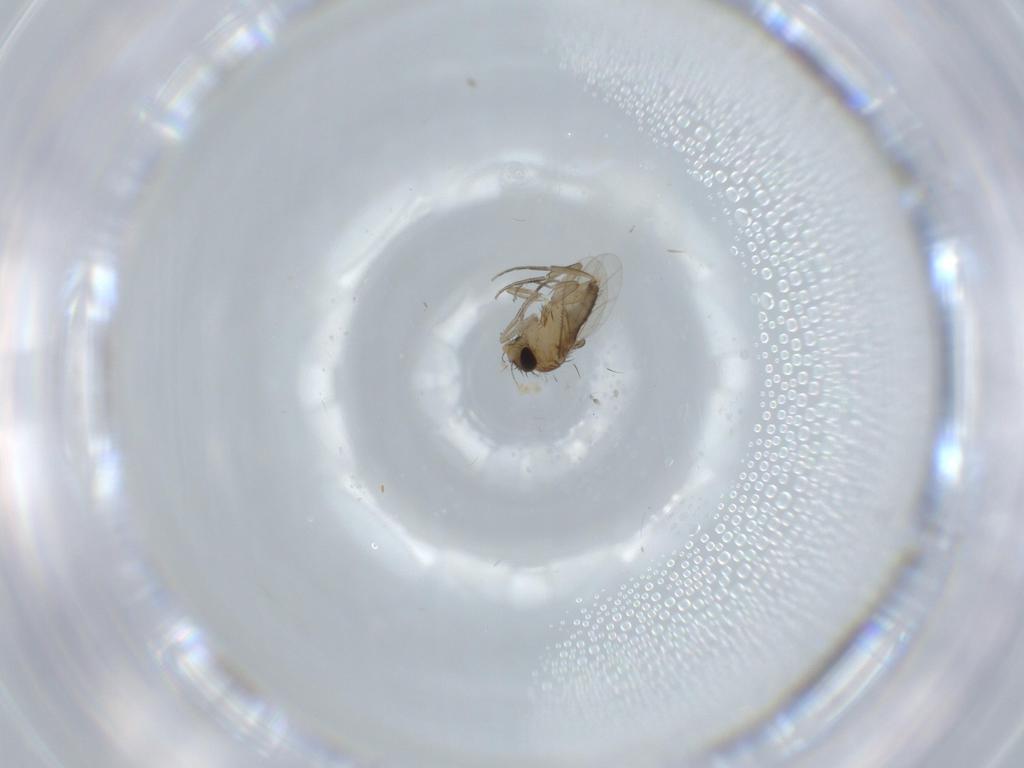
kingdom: Animalia
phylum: Arthropoda
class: Insecta
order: Diptera
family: Phoridae
